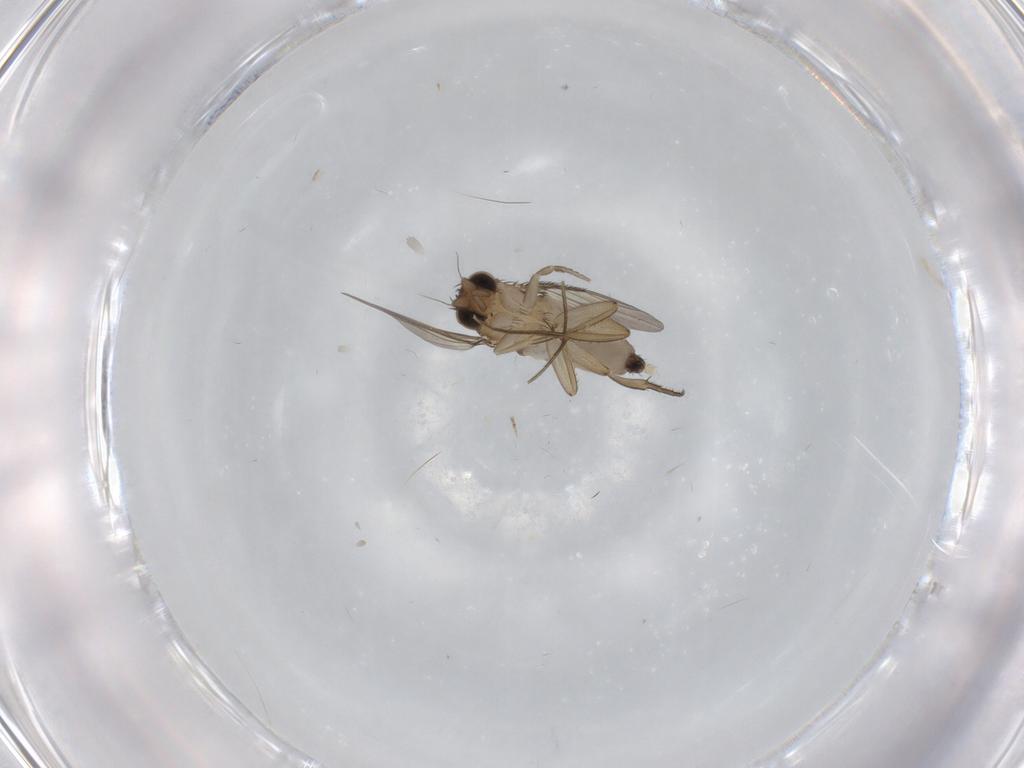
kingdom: Animalia
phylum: Arthropoda
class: Insecta
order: Diptera
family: Phoridae
